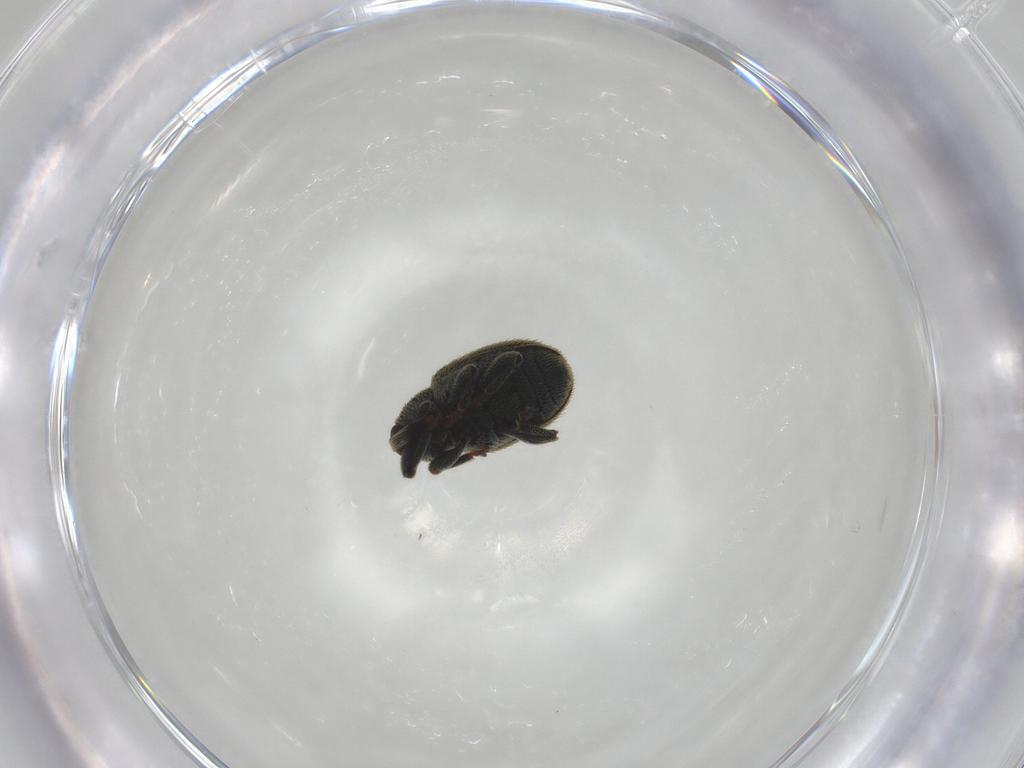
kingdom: Animalia
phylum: Arthropoda
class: Insecta
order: Coleoptera
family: Curculionidae
